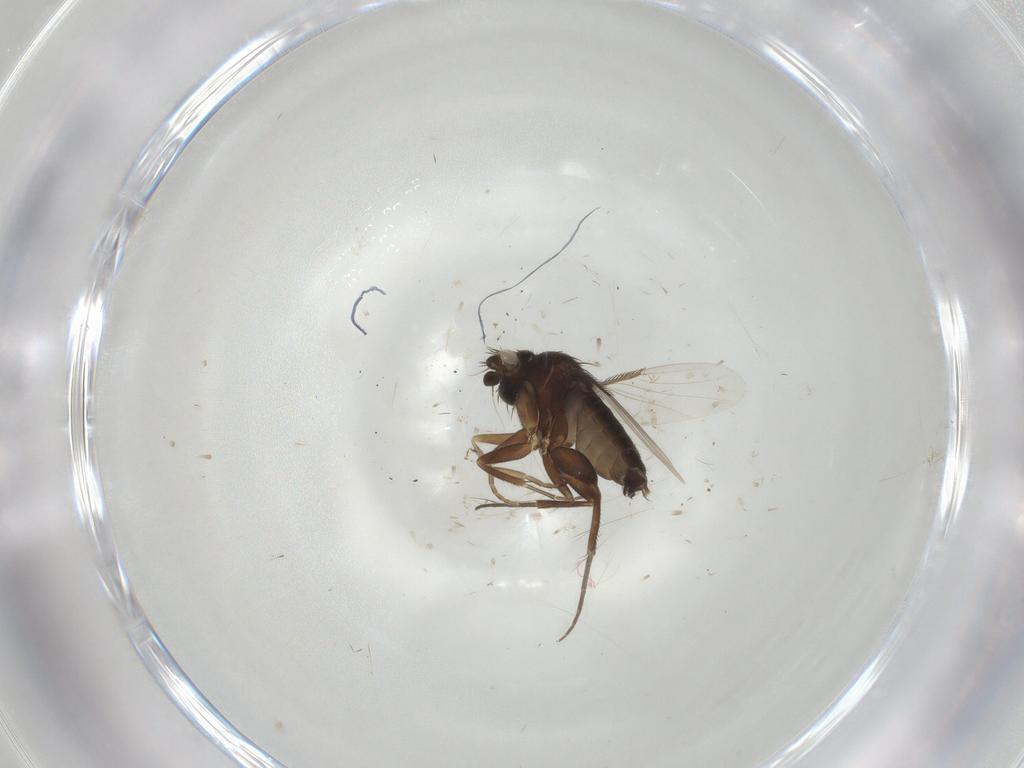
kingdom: Animalia
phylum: Arthropoda
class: Insecta
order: Diptera
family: Phoridae
